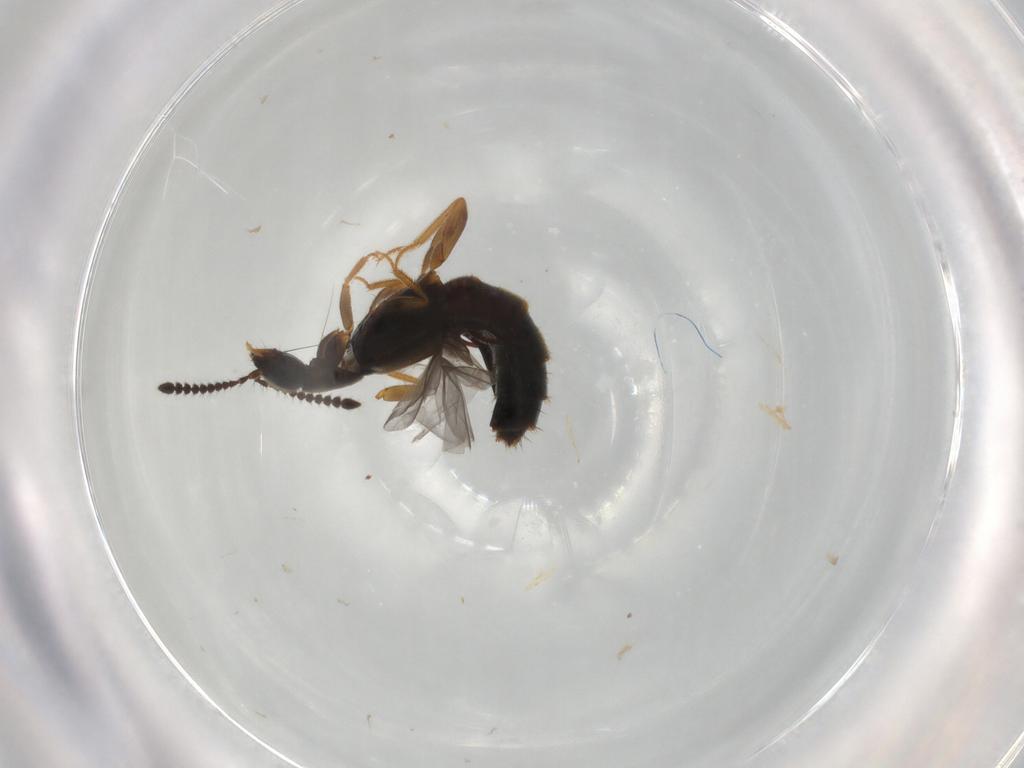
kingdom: Animalia
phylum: Arthropoda
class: Insecta
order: Coleoptera
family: Staphylinidae
